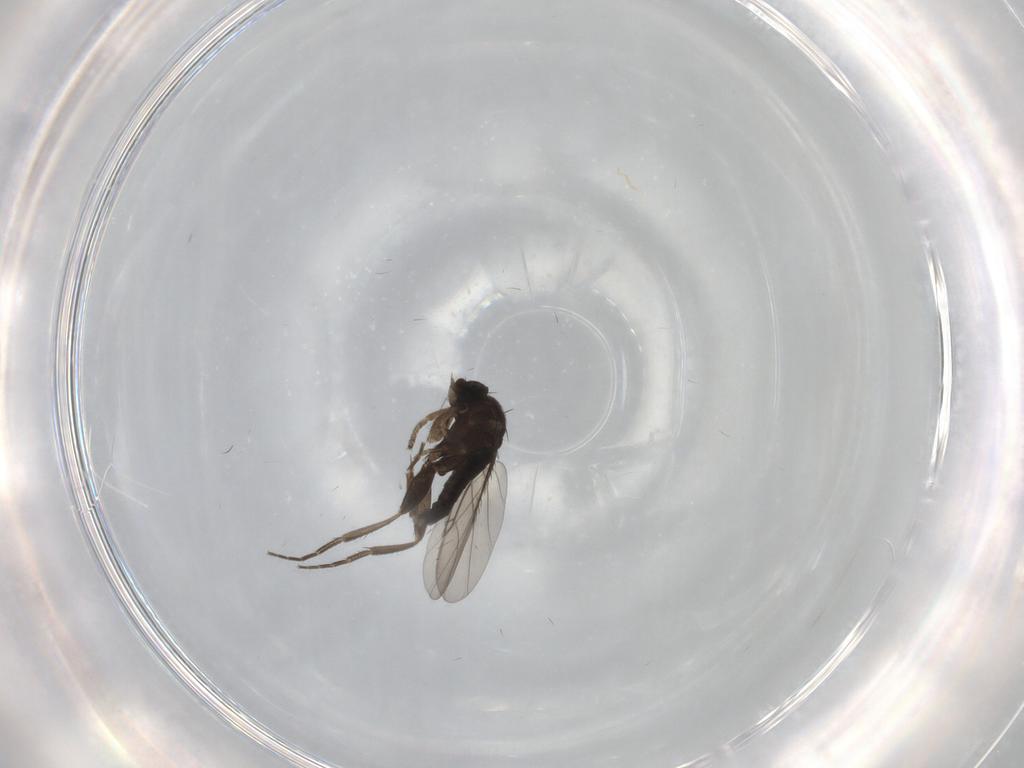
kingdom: Animalia
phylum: Arthropoda
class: Insecta
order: Diptera
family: Phoridae
